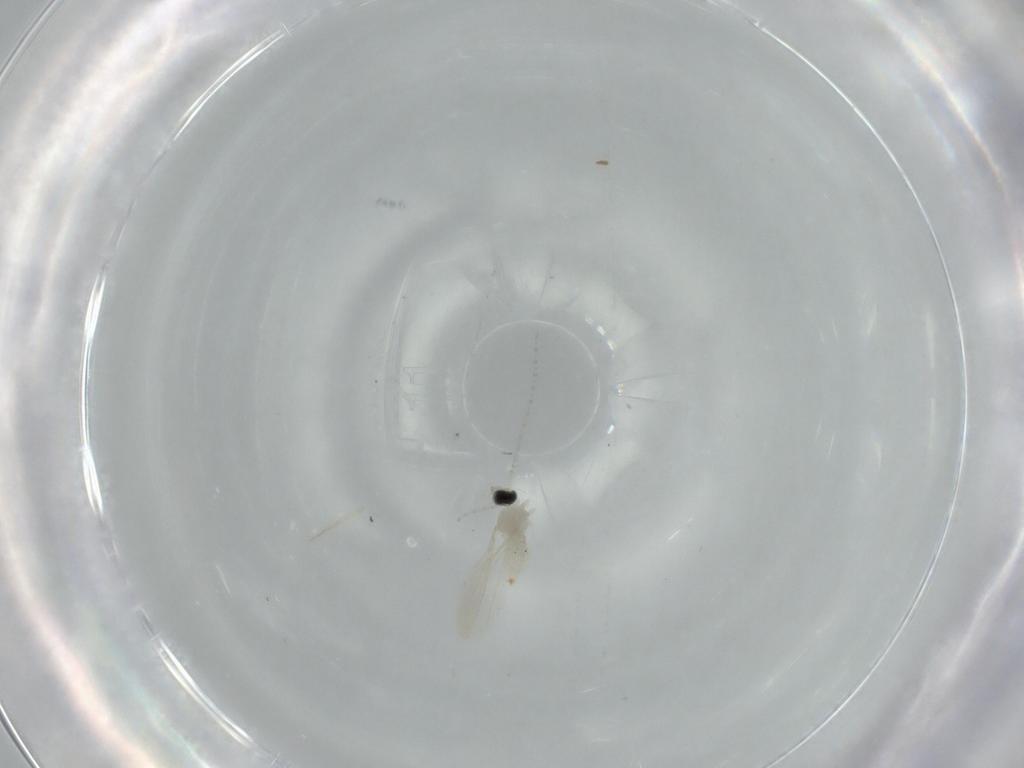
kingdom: Animalia
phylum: Arthropoda
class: Insecta
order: Diptera
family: Cecidomyiidae
